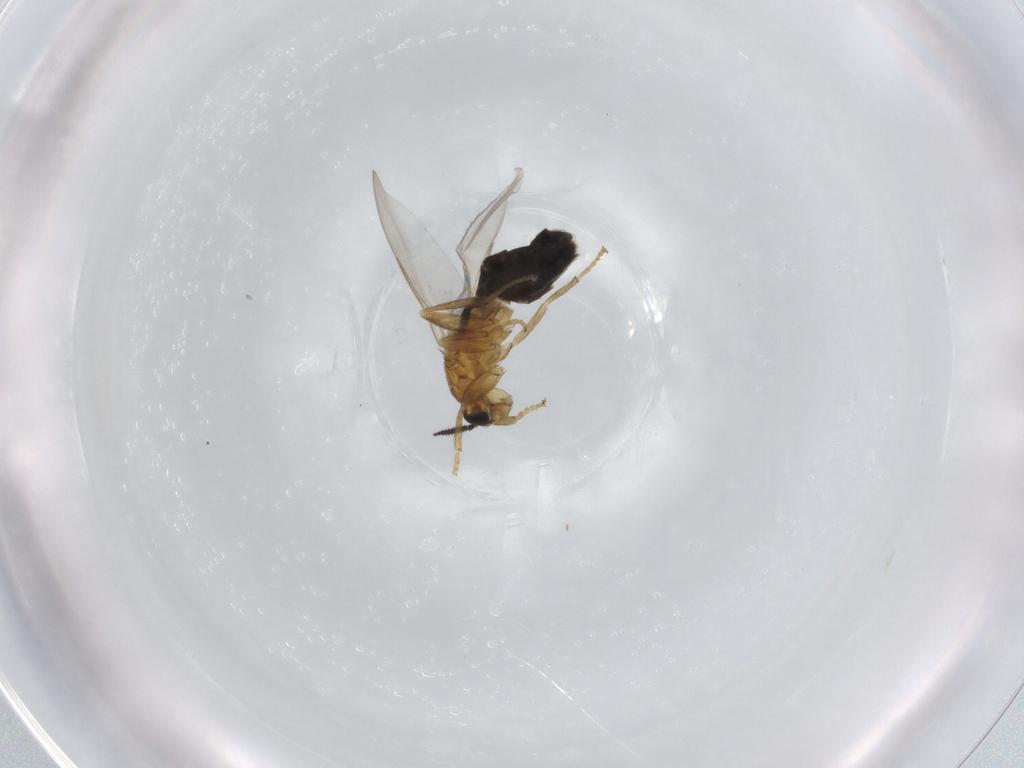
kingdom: Animalia
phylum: Arthropoda
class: Insecta
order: Diptera
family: Scatopsidae
